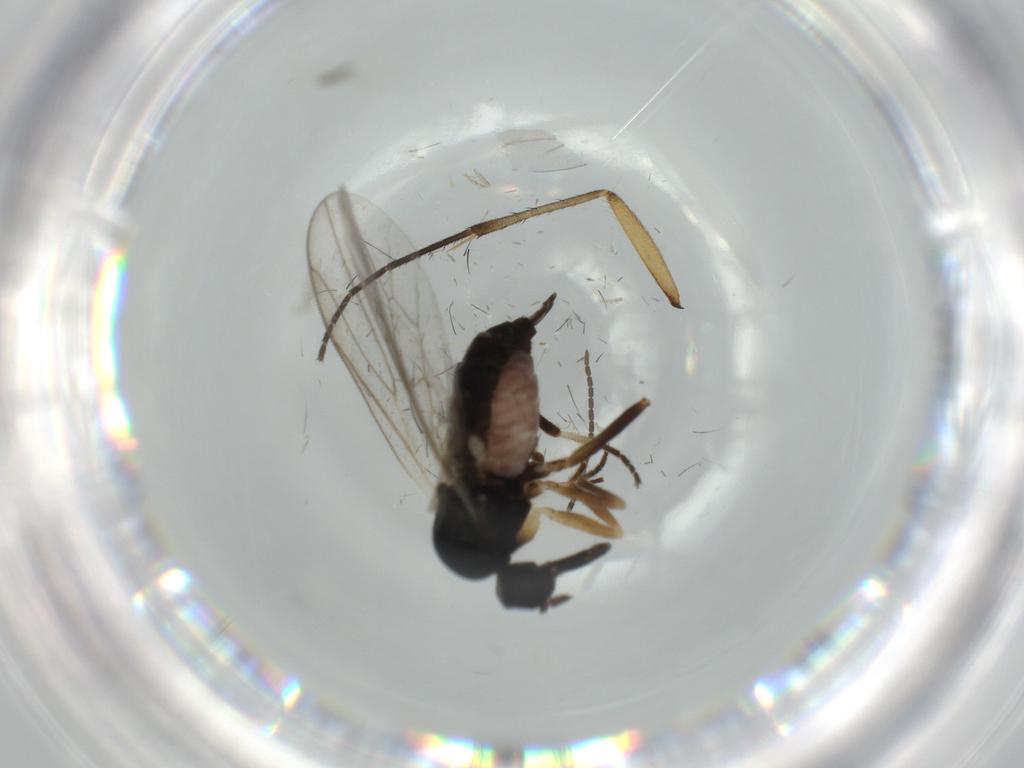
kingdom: Animalia
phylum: Arthropoda
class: Insecta
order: Diptera
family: Hybotidae
